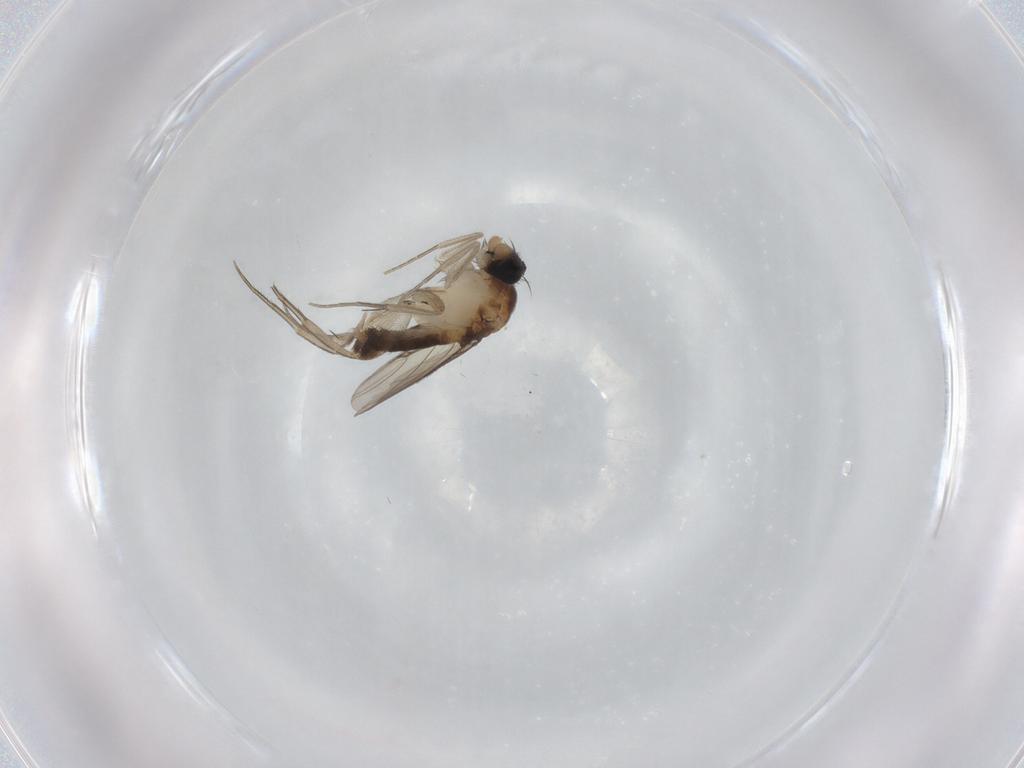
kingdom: Animalia
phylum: Arthropoda
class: Insecta
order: Diptera
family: Phoridae
